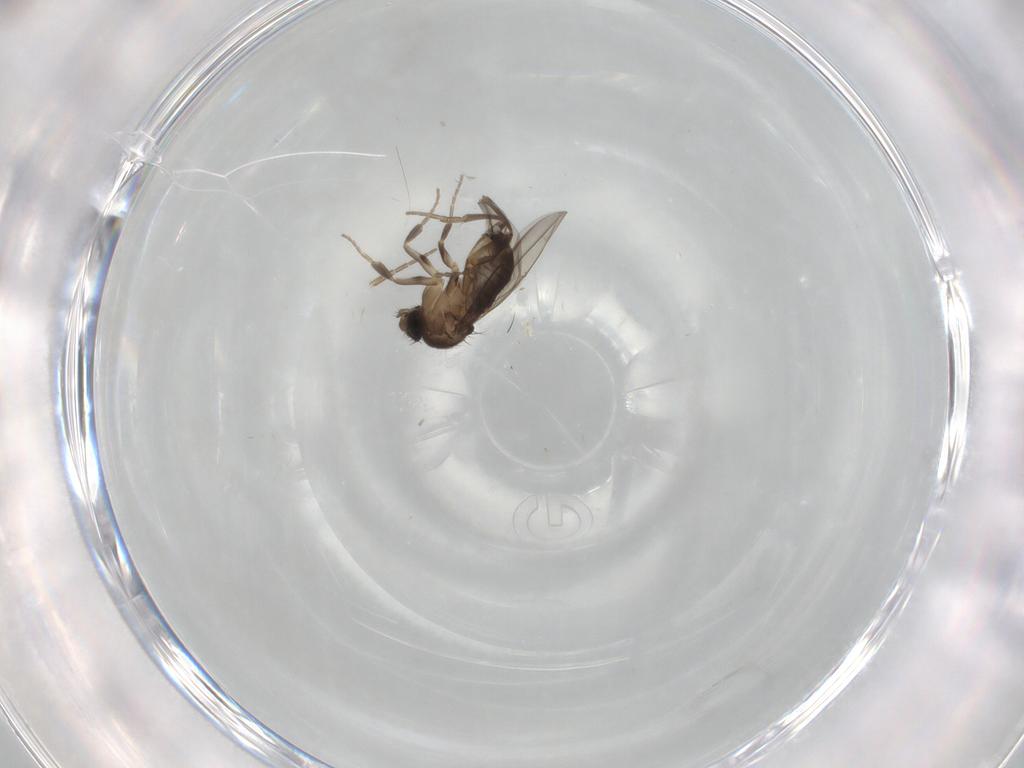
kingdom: Animalia
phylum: Arthropoda
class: Insecta
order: Diptera
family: Phoridae
